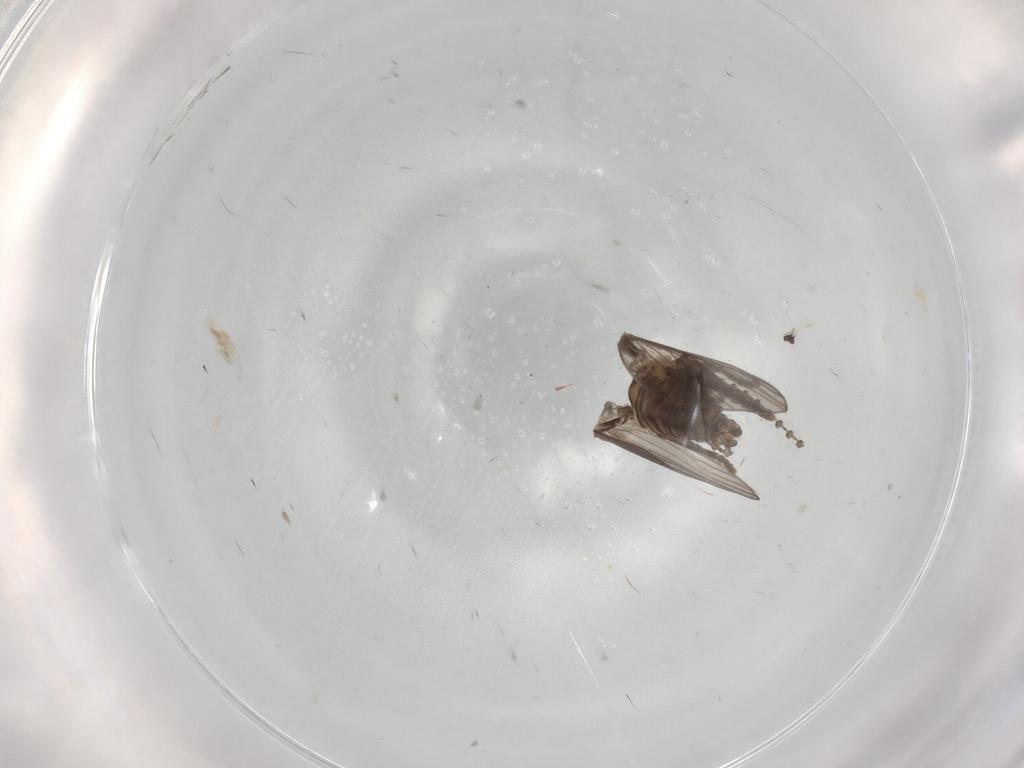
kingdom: Animalia
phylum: Arthropoda
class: Insecta
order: Diptera
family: Psychodidae
